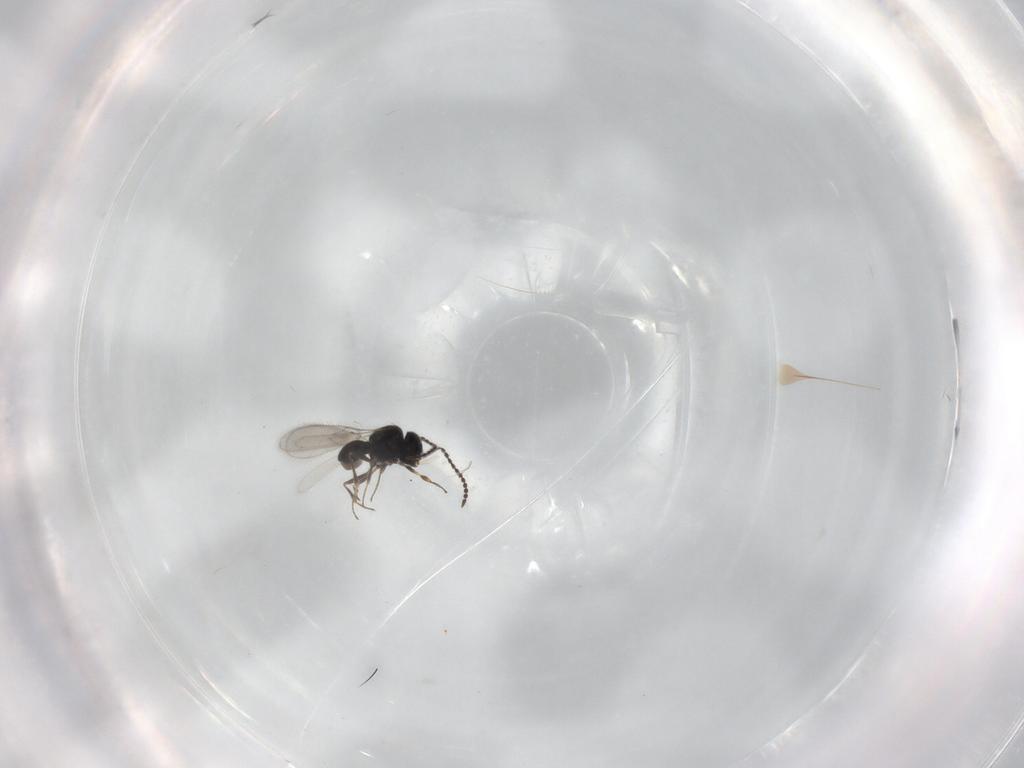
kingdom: Animalia
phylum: Arthropoda
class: Insecta
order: Hymenoptera
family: Scelionidae
